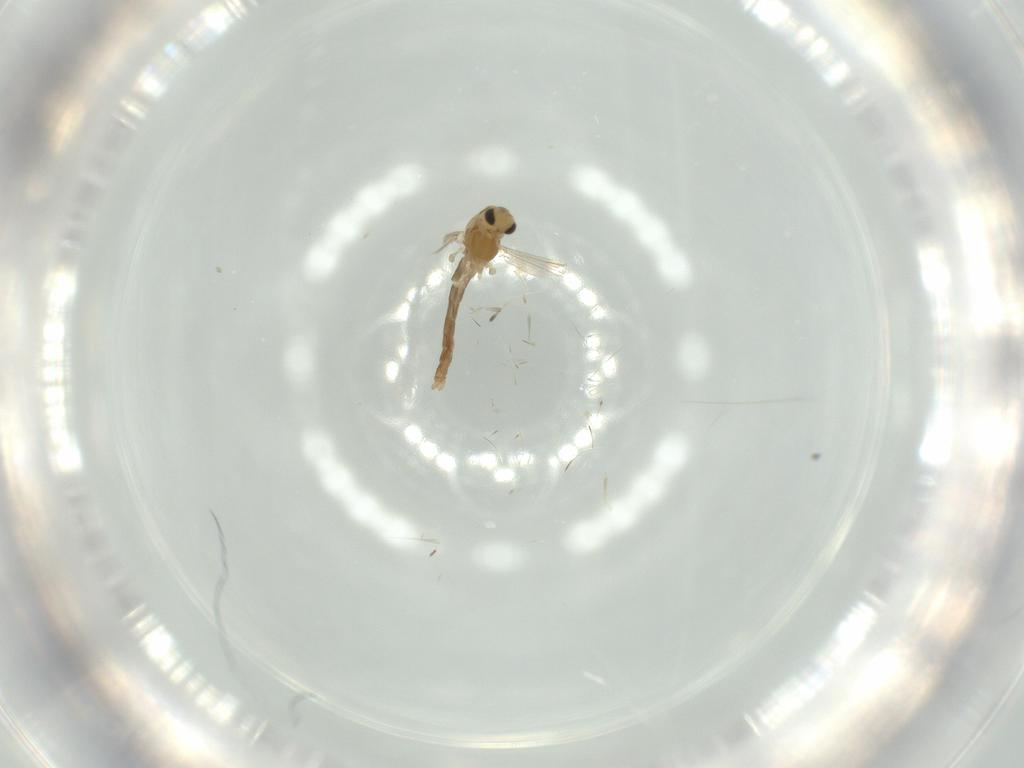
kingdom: Animalia
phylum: Arthropoda
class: Insecta
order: Diptera
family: Chironomidae
